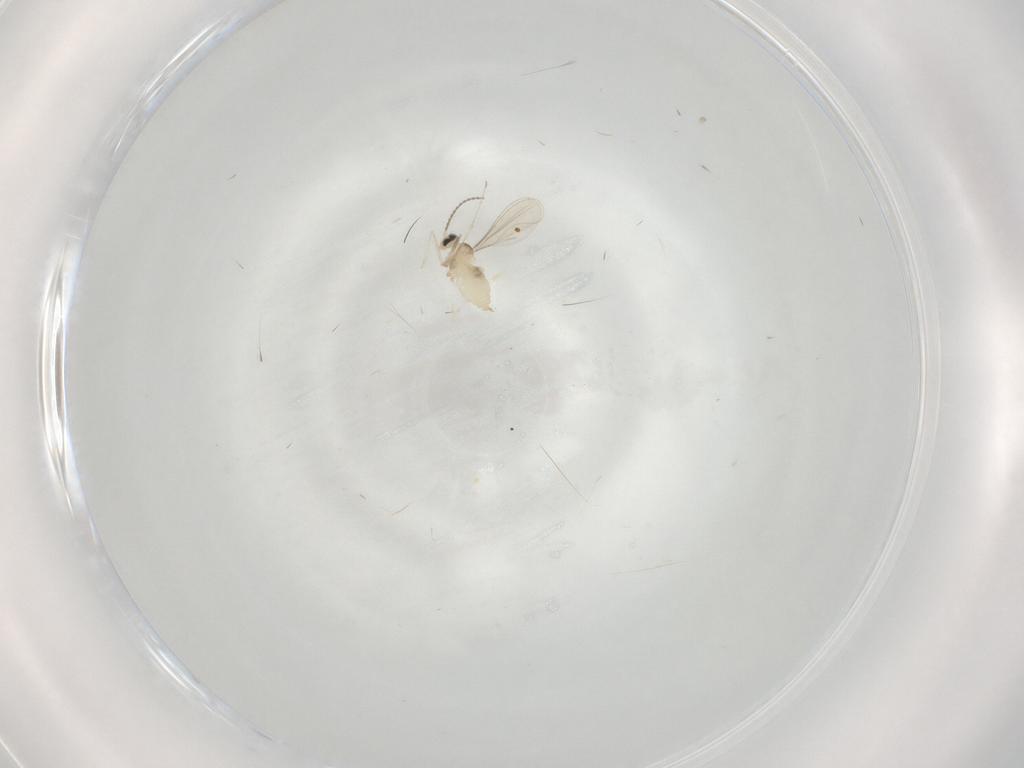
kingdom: Animalia
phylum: Arthropoda
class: Insecta
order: Diptera
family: Cecidomyiidae
